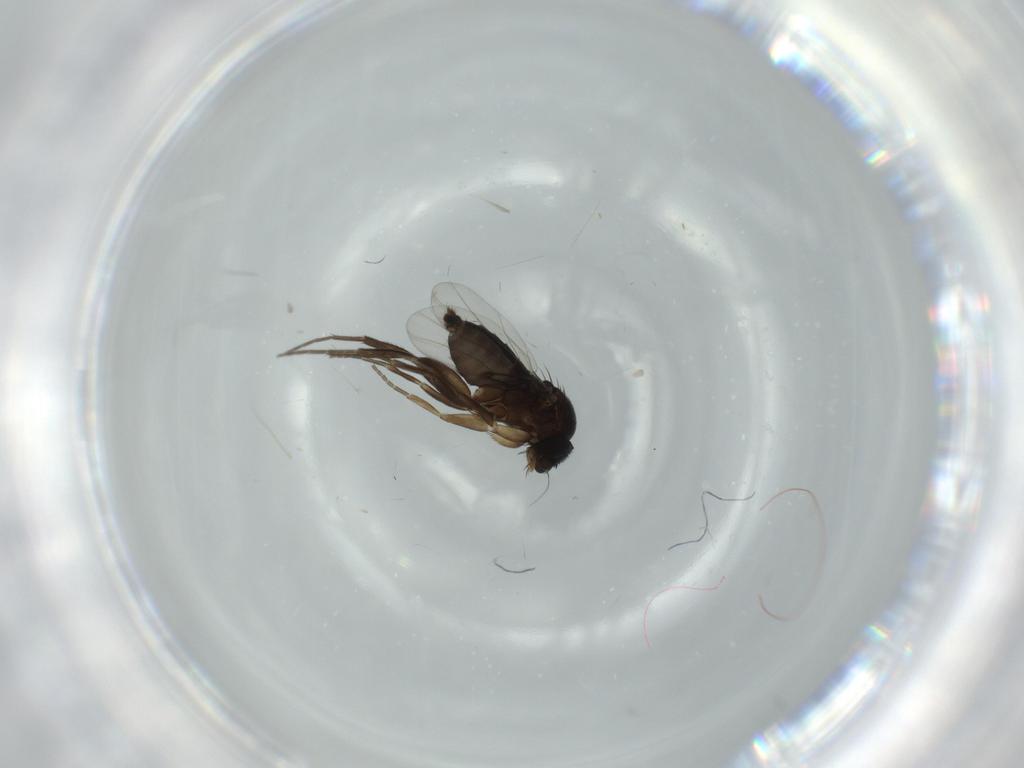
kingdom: Animalia
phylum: Arthropoda
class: Insecta
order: Diptera
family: Phoridae
